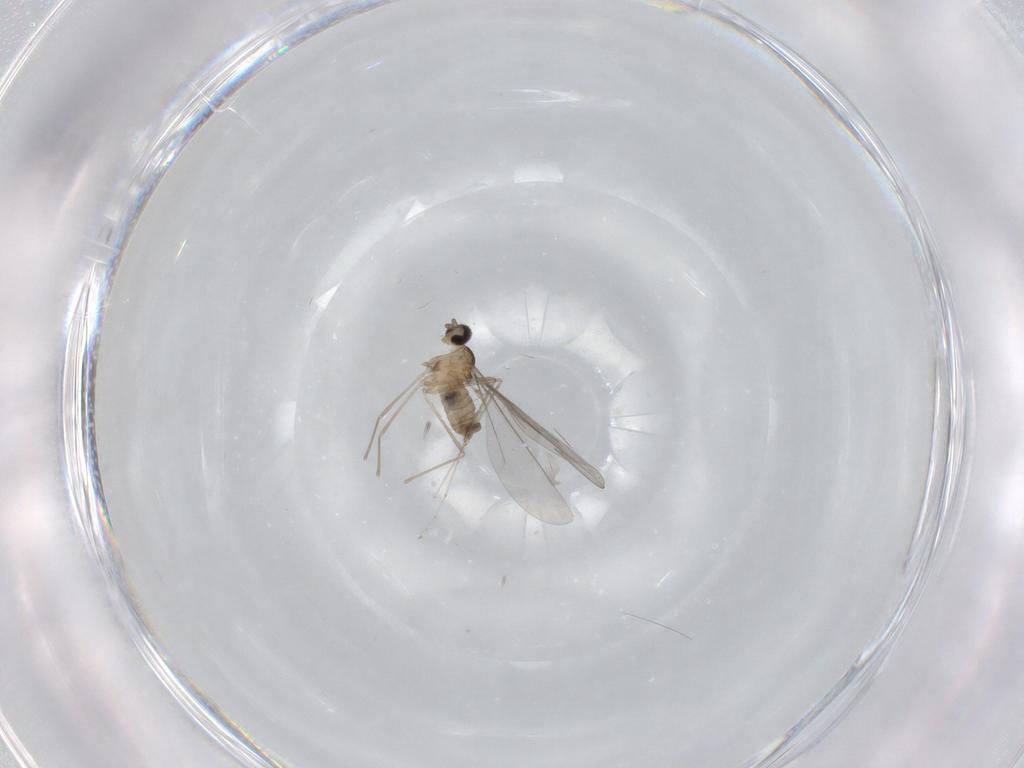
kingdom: Animalia
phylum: Arthropoda
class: Insecta
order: Diptera
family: Cecidomyiidae
